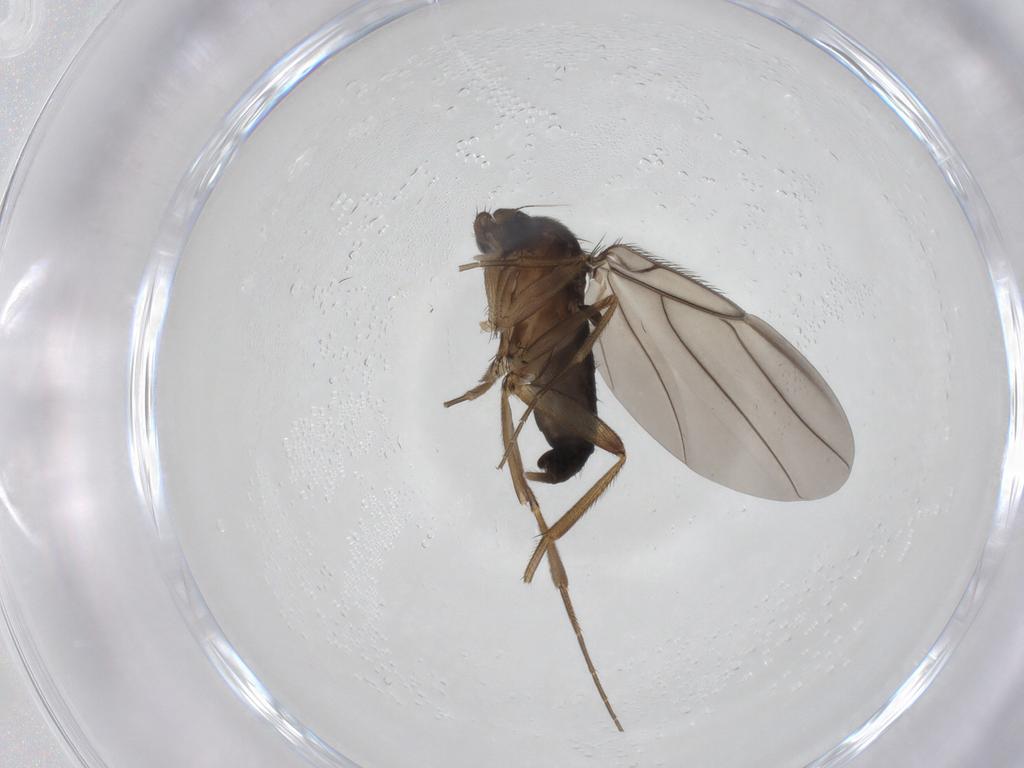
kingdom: Animalia
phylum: Arthropoda
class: Insecta
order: Diptera
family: Phoridae
